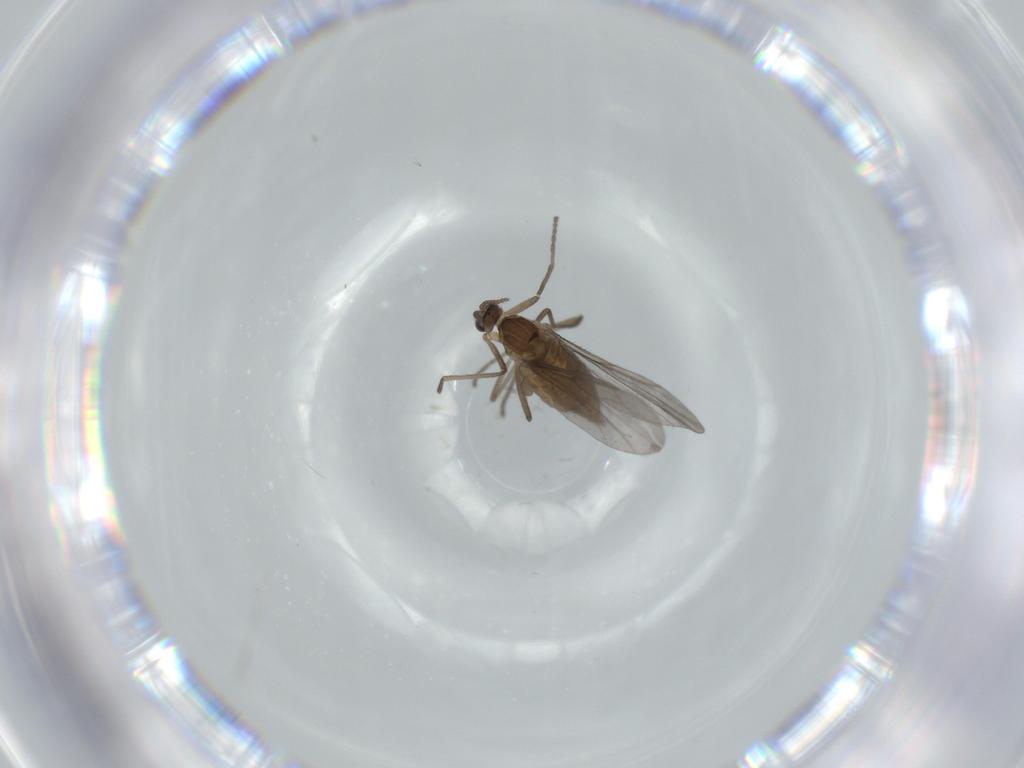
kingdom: Animalia
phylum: Arthropoda
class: Insecta
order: Diptera
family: Cecidomyiidae
